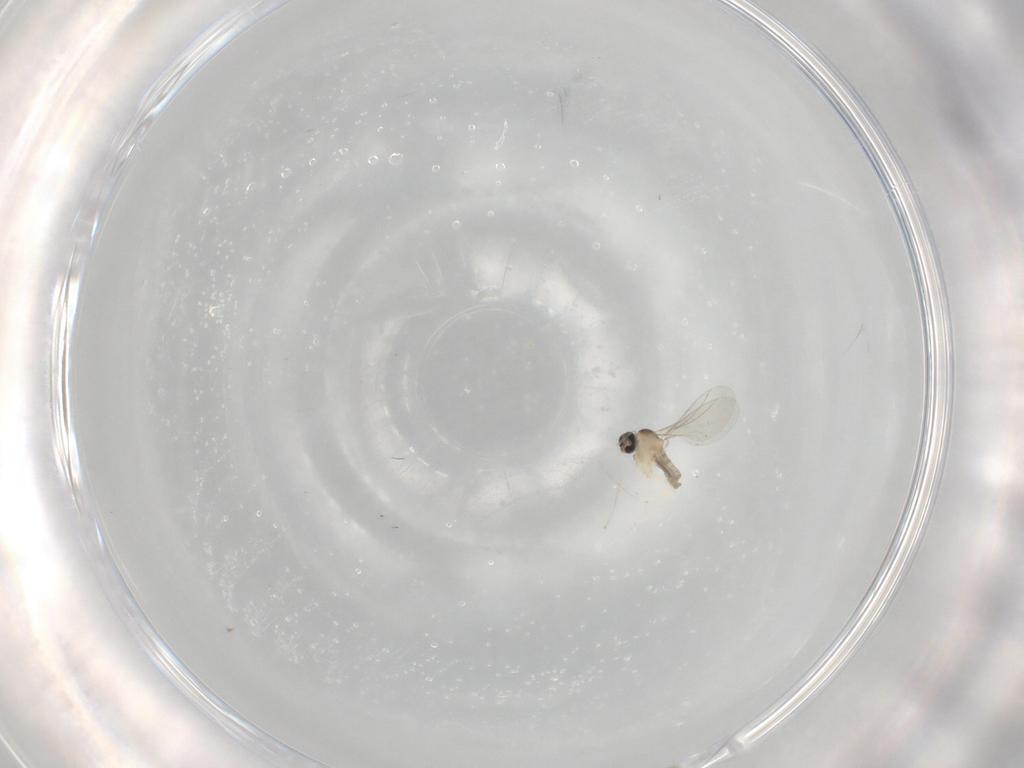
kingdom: Animalia
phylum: Arthropoda
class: Insecta
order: Diptera
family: Cecidomyiidae
